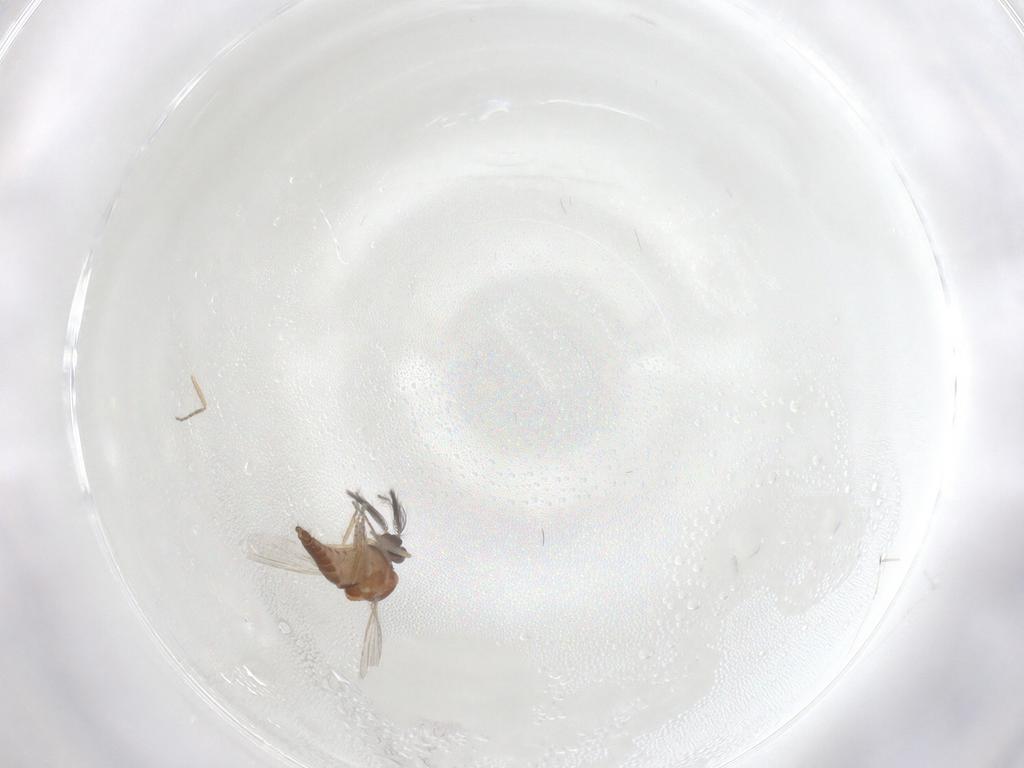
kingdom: Animalia
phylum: Arthropoda
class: Insecta
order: Diptera
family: Ceratopogonidae
